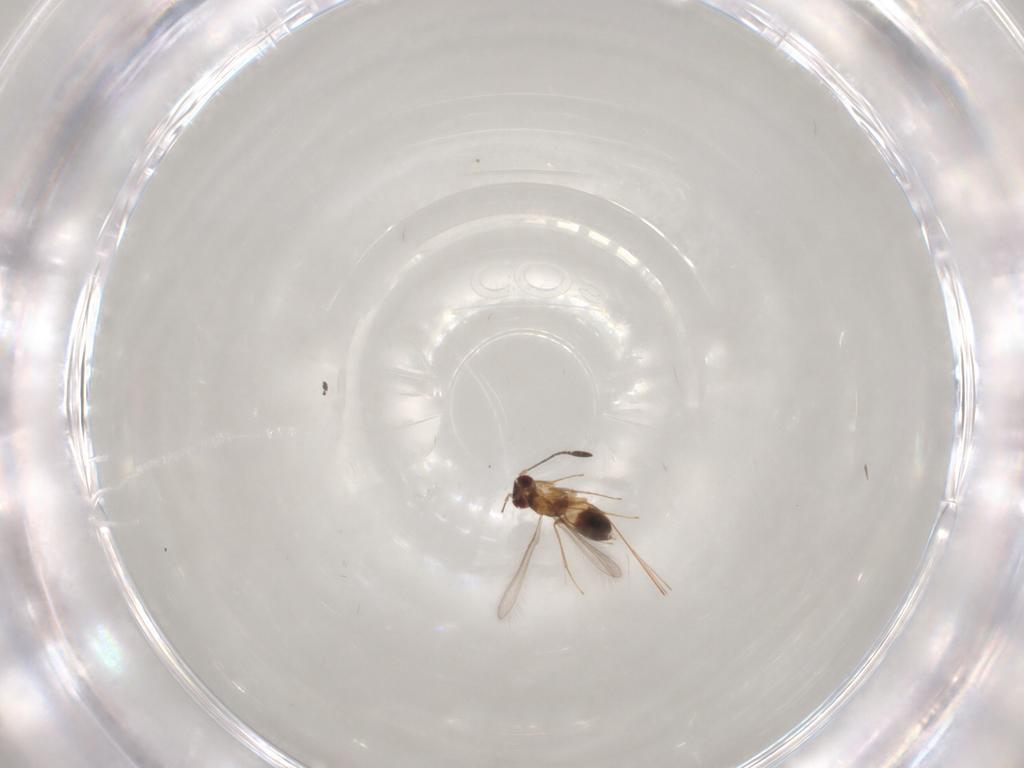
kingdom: Animalia
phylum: Arthropoda
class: Insecta
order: Hymenoptera
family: Mymaridae
